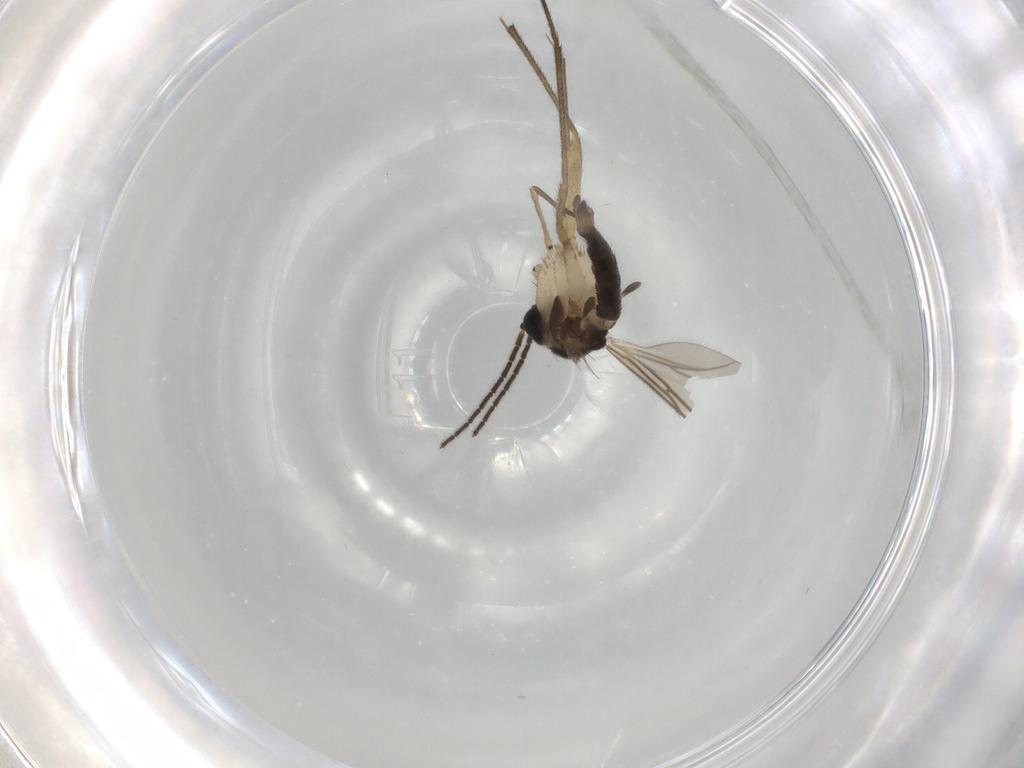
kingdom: Animalia
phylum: Arthropoda
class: Insecta
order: Diptera
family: Sciaridae
